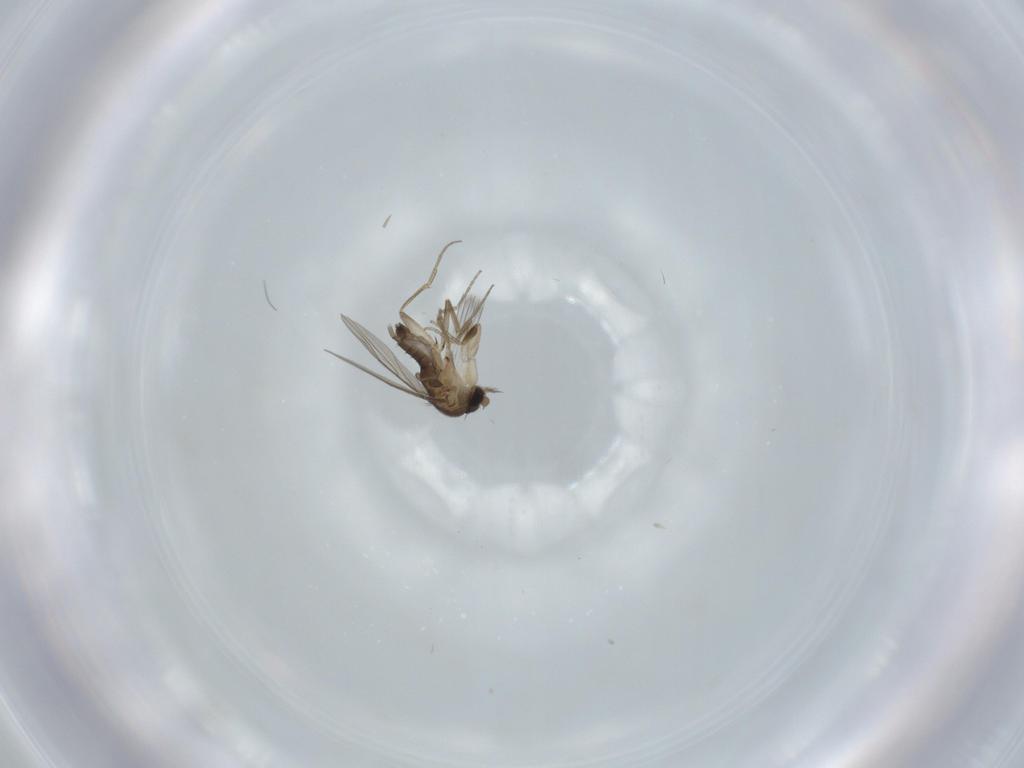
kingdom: Animalia
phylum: Arthropoda
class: Insecta
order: Diptera
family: Phoridae
